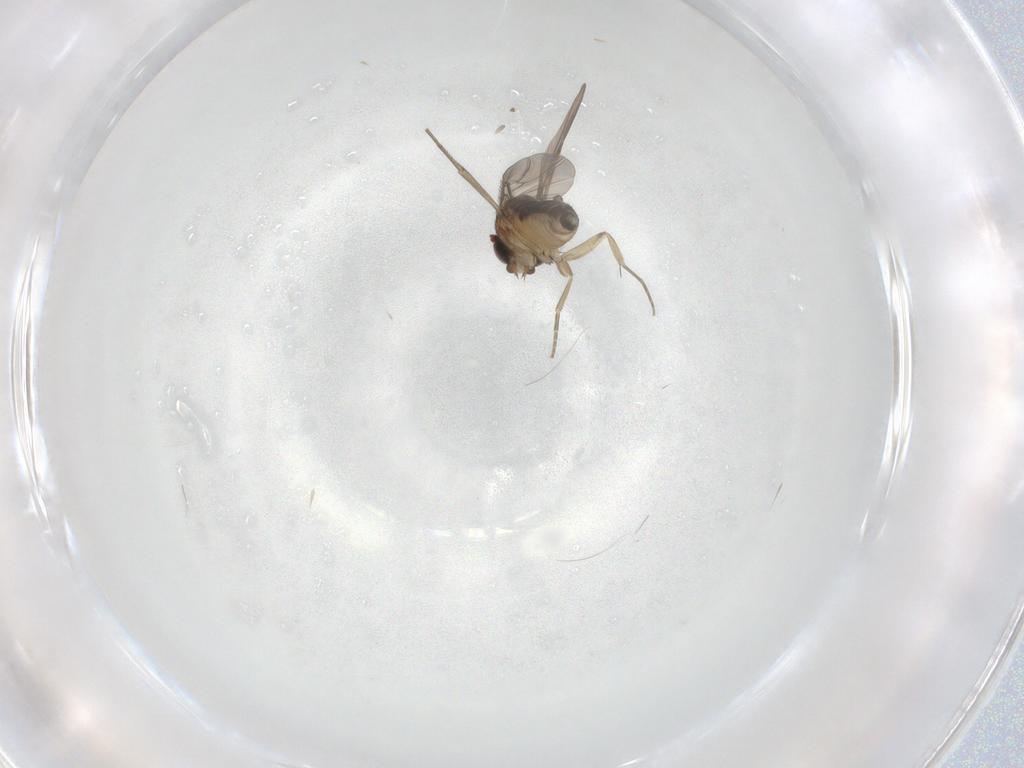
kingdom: Animalia
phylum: Arthropoda
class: Insecta
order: Diptera
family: Phoridae
